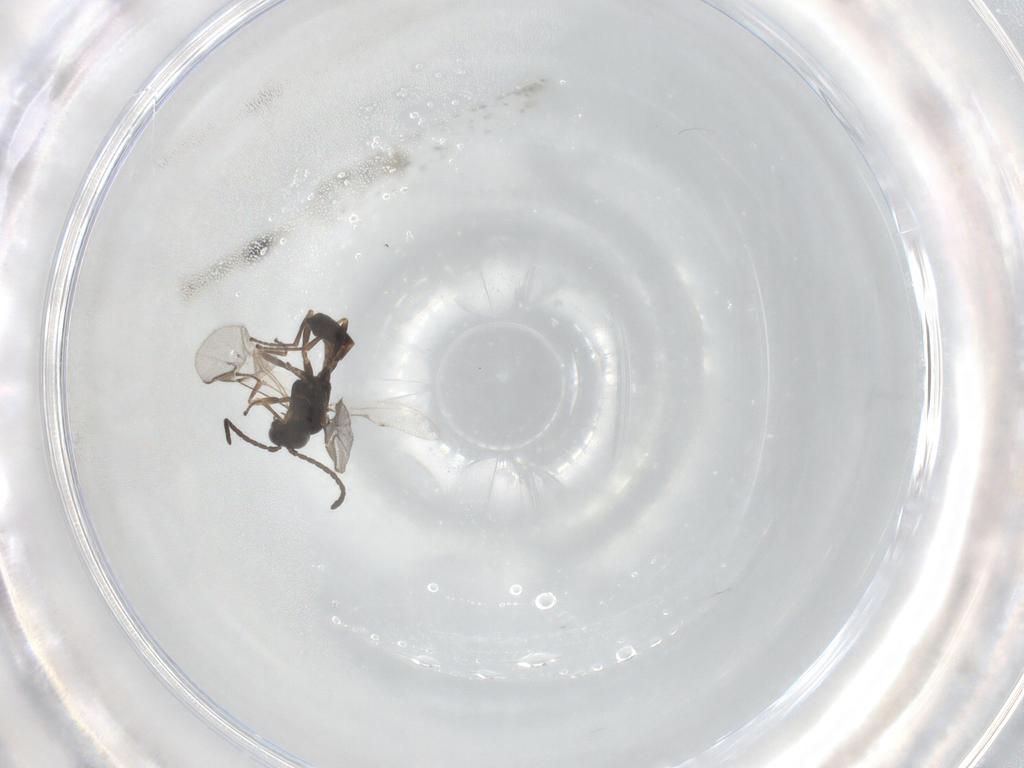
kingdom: Animalia
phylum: Arthropoda
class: Insecta
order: Hymenoptera
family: Braconidae
